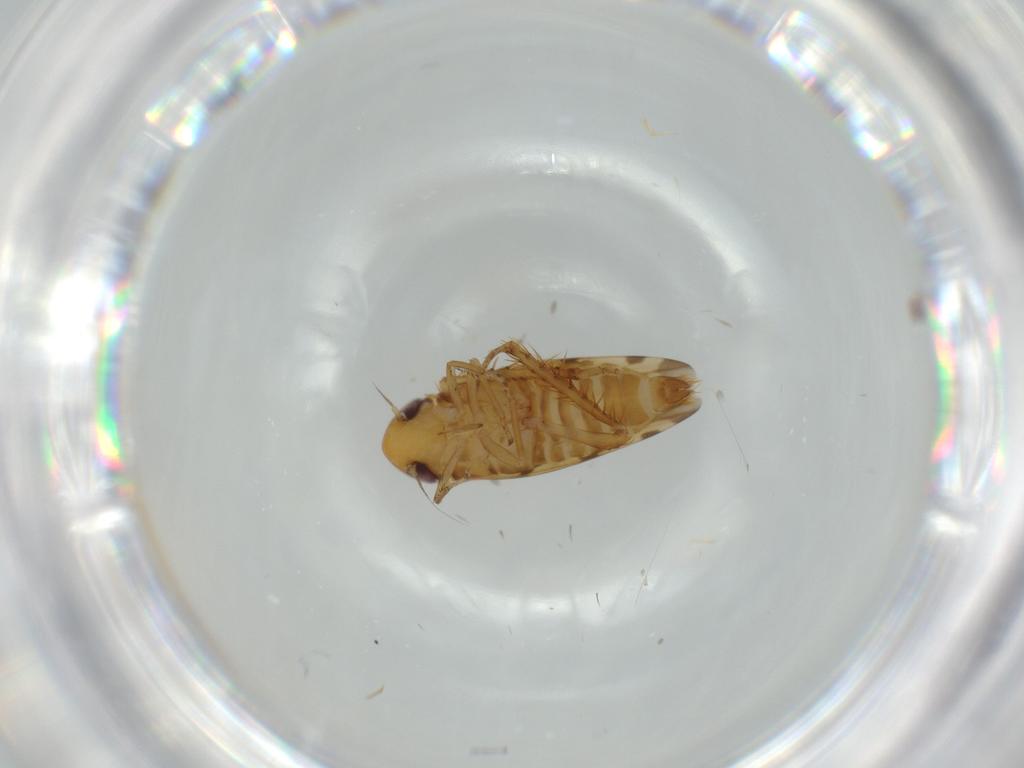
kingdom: Animalia
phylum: Arthropoda
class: Insecta
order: Hemiptera
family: Cicadellidae
